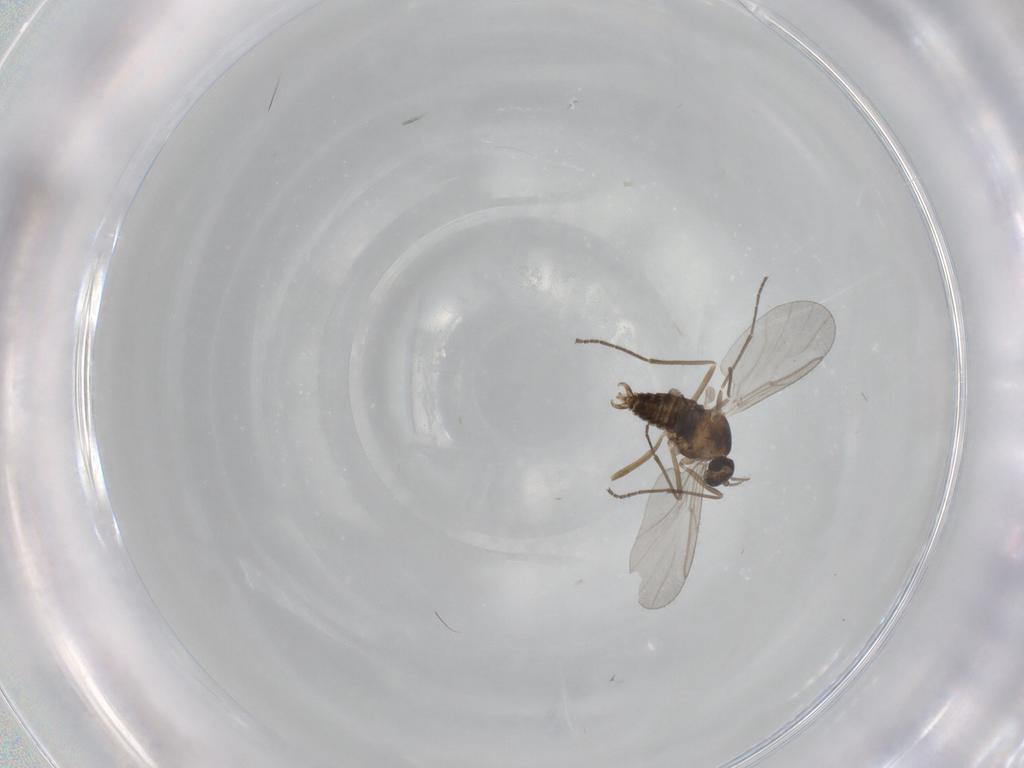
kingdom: Animalia
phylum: Arthropoda
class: Insecta
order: Diptera
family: Cecidomyiidae
